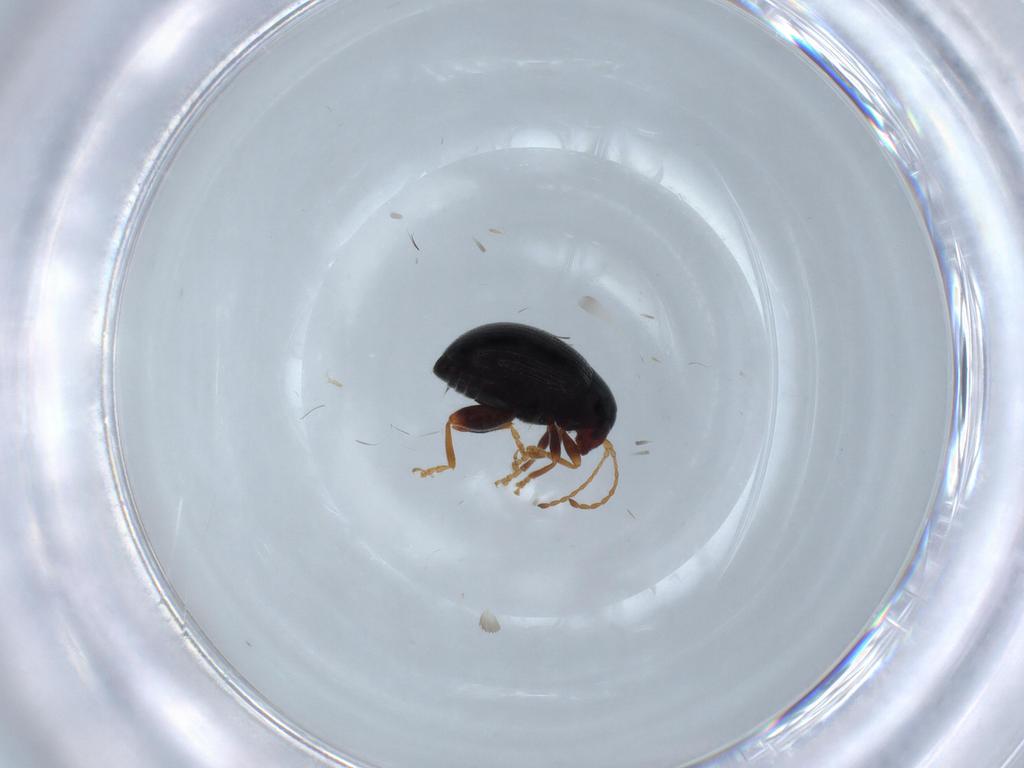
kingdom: Animalia
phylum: Arthropoda
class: Insecta
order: Coleoptera
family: Chrysomelidae
